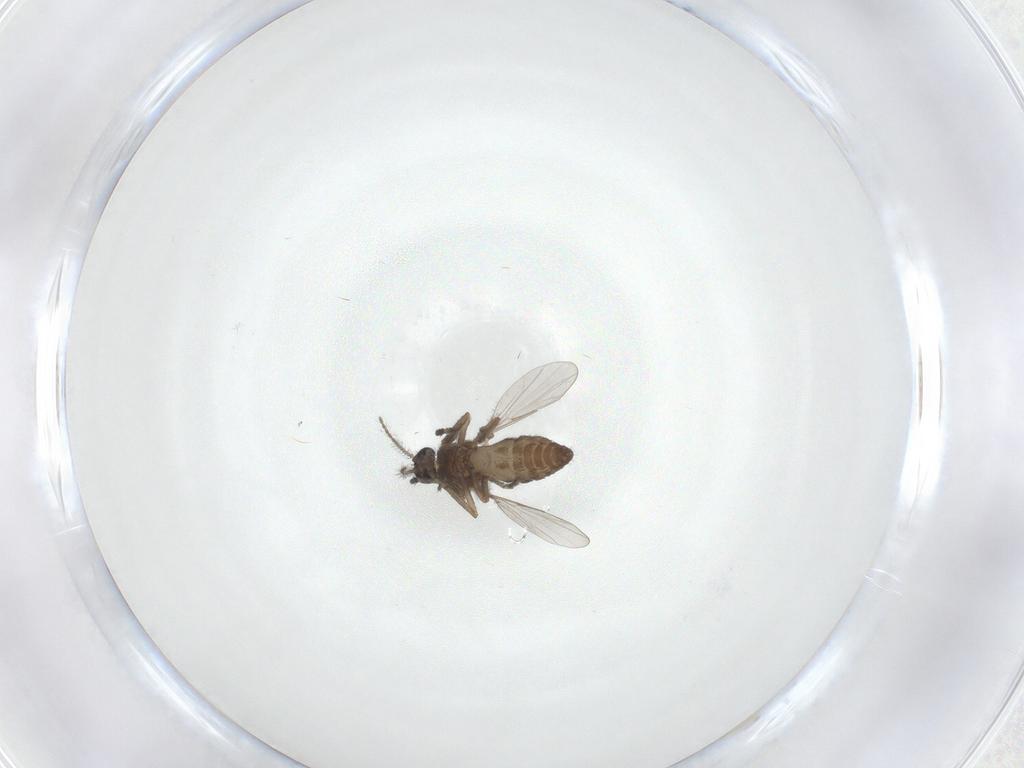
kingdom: Animalia
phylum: Arthropoda
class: Insecta
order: Diptera
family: Ceratopogonidae
